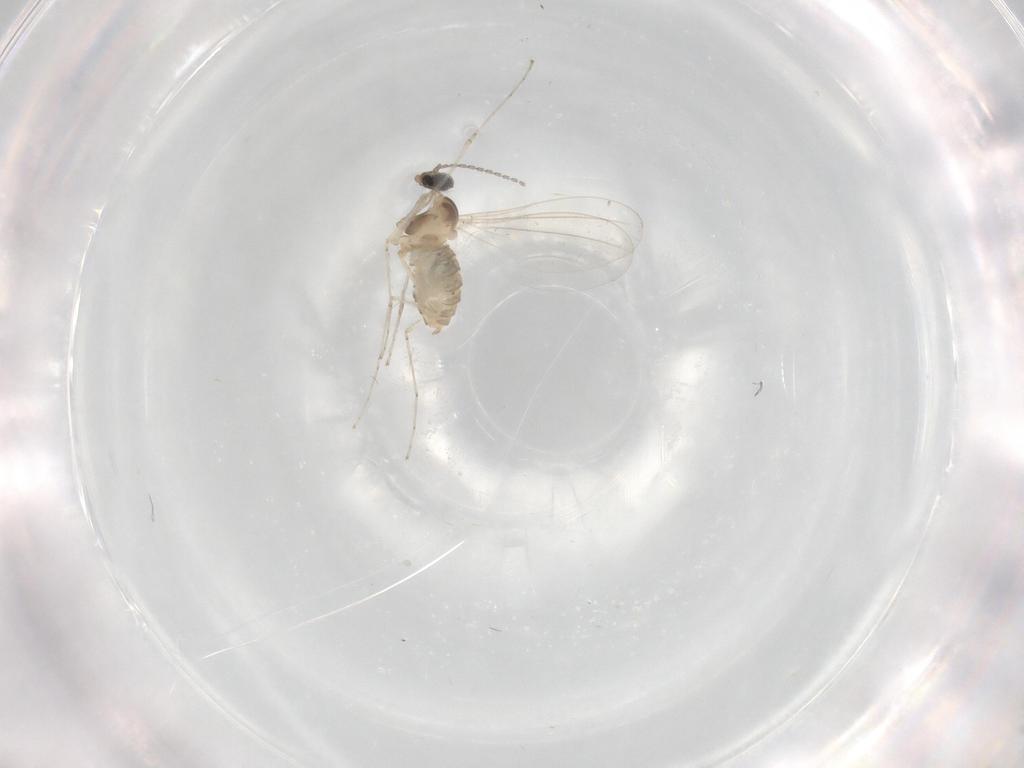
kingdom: Animalia
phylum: Arthropoda
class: Insecta
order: Diptera
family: Cecidomyiidae
